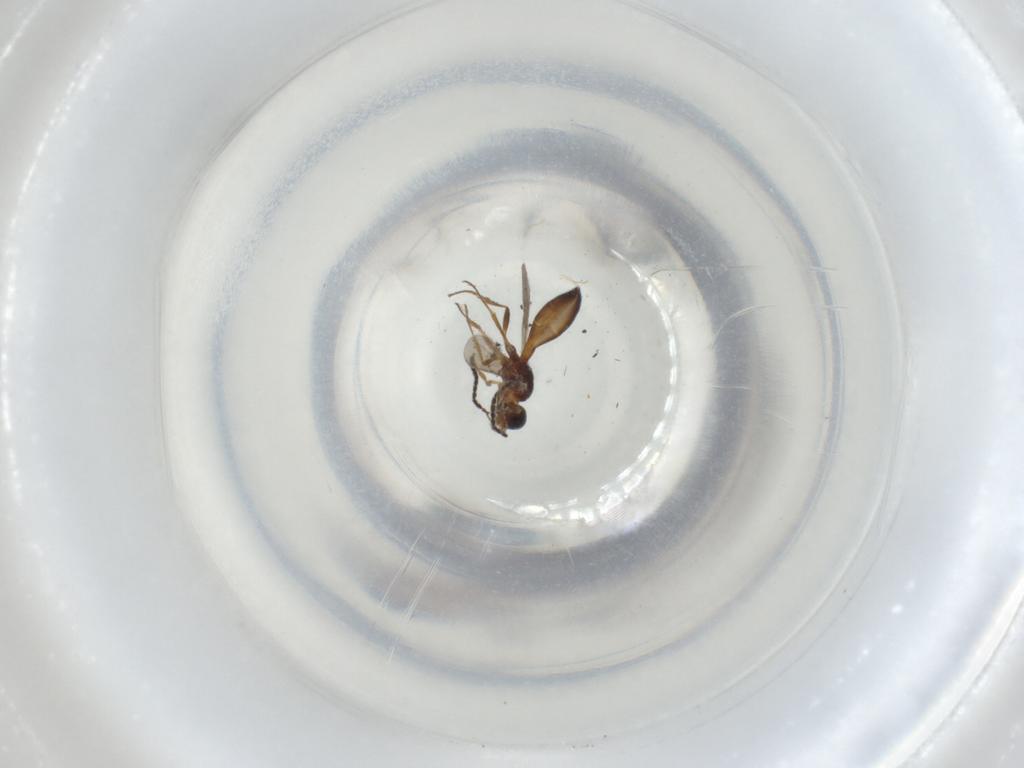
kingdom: Animalia
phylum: Arthropoda
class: Insecta
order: Hymenoptera
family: Scelionidae
